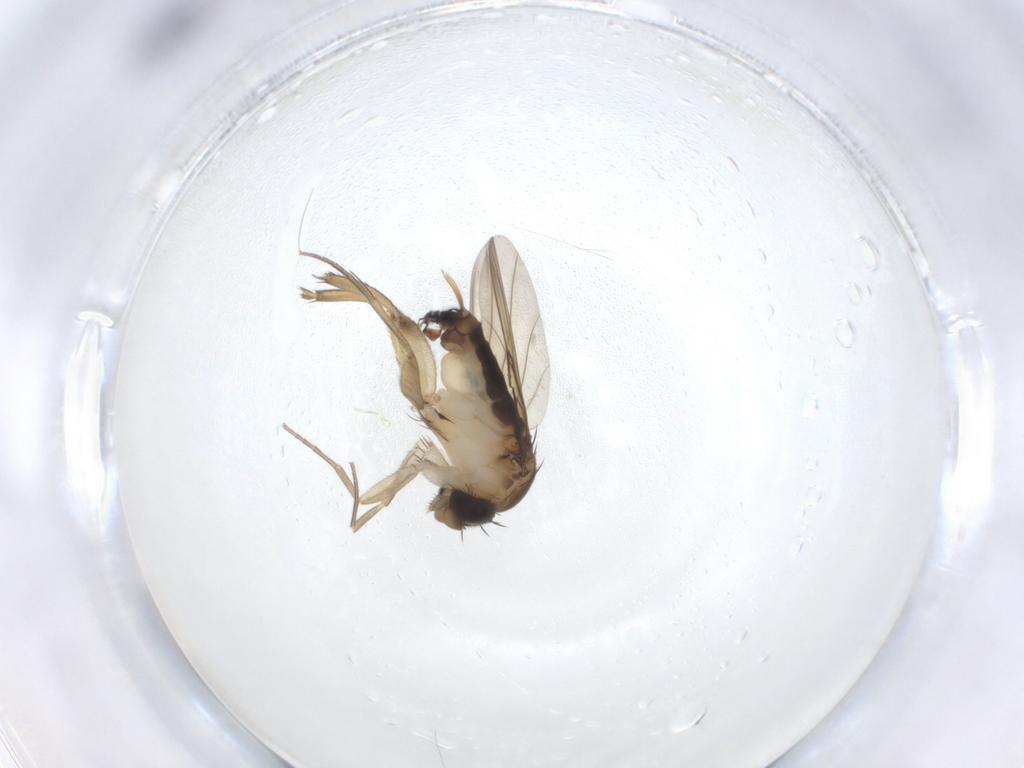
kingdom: Animalia
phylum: Arthropoda
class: Insecta
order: Diptera
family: Phoridae
